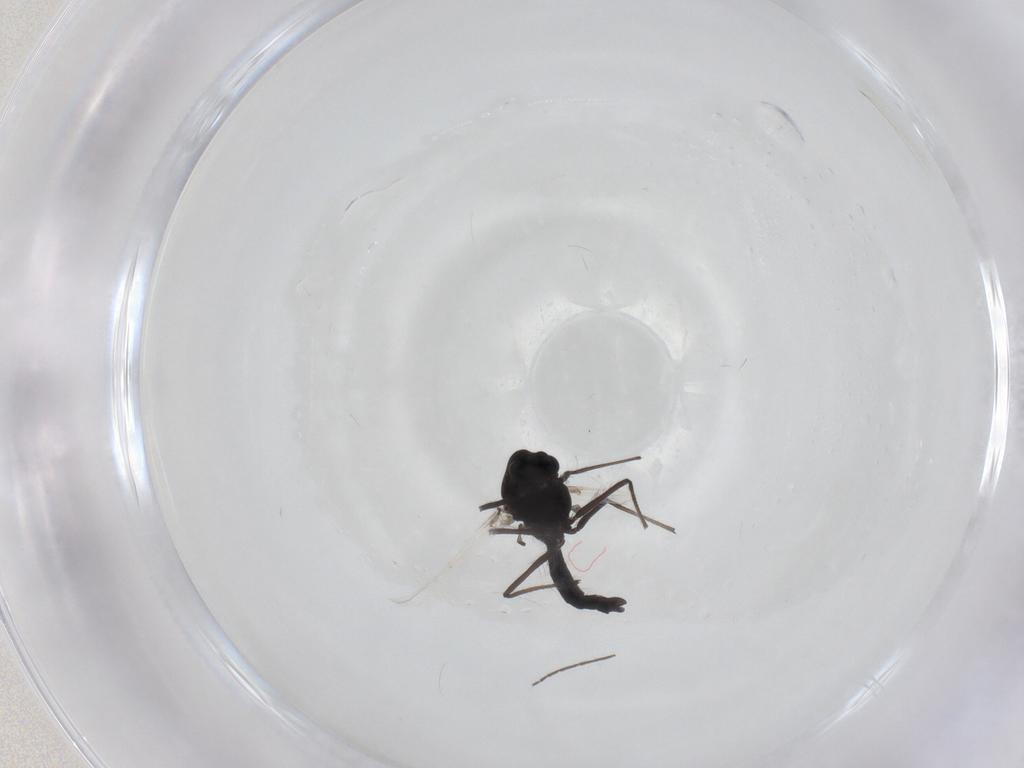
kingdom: Animalia
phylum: Arthropoda
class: Insecta
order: Diptera
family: Chironomidae
